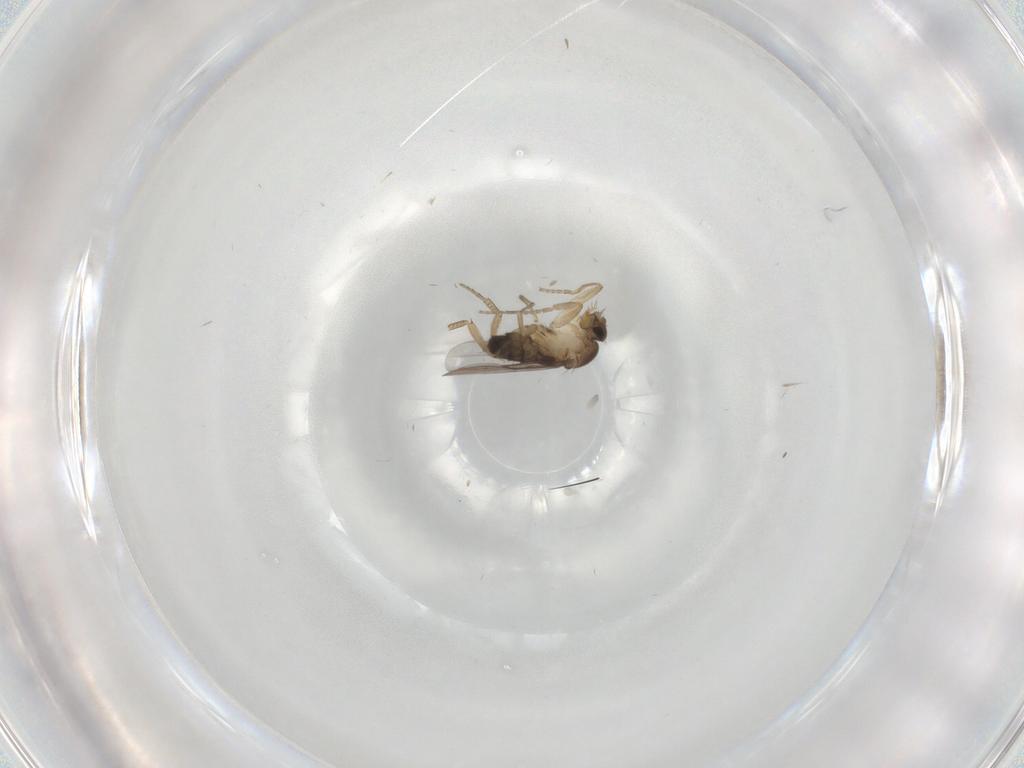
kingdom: Animalia
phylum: Arthropoda
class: Insecta
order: Diptera
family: Phoridae
